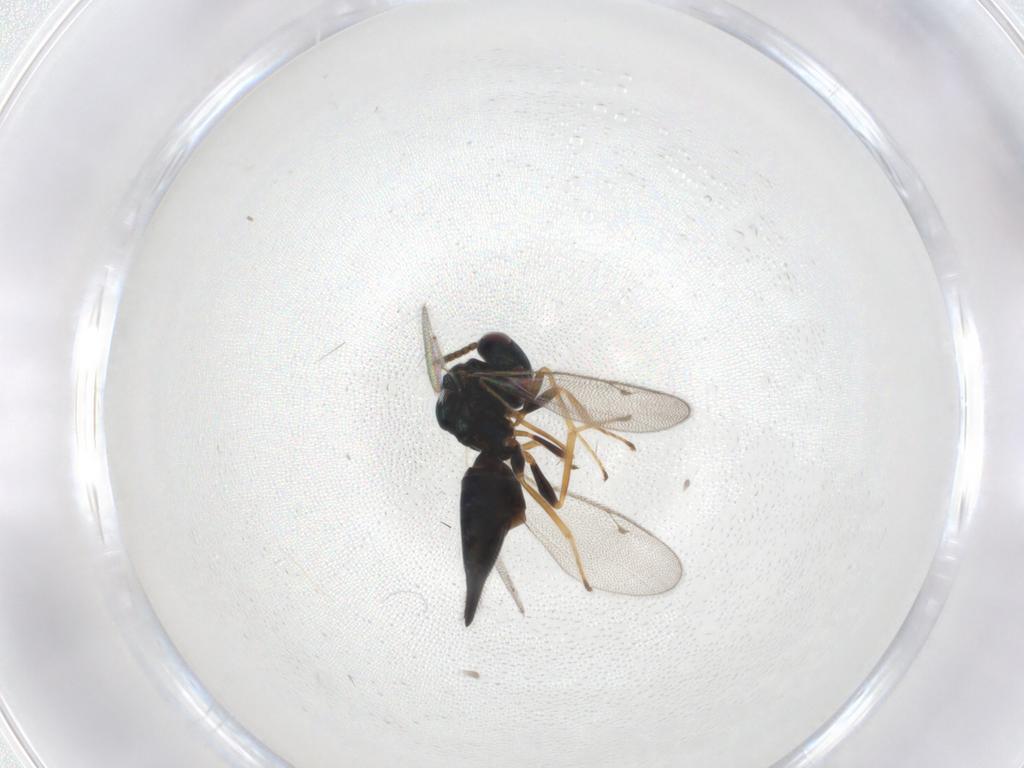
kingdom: Animalia
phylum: Arthropoda
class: Insecta
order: Hymenoptera
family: Pteromalidae
